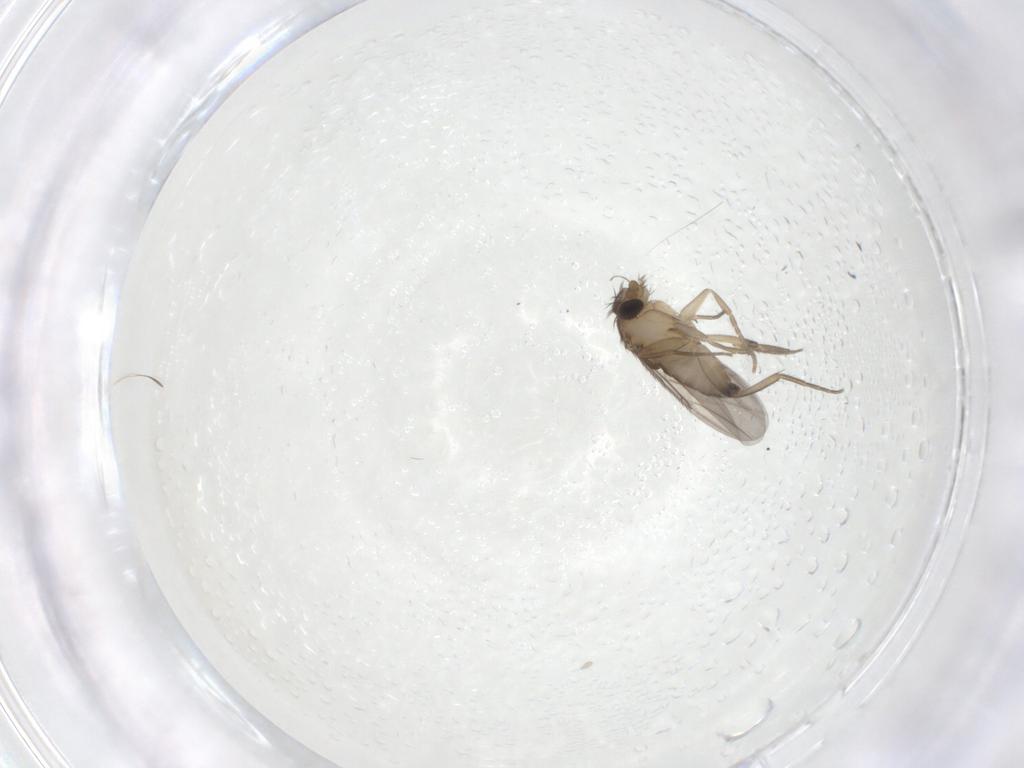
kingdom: Animalia
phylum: Arthropoda
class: Insecta
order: Diptera
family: Phoridae
